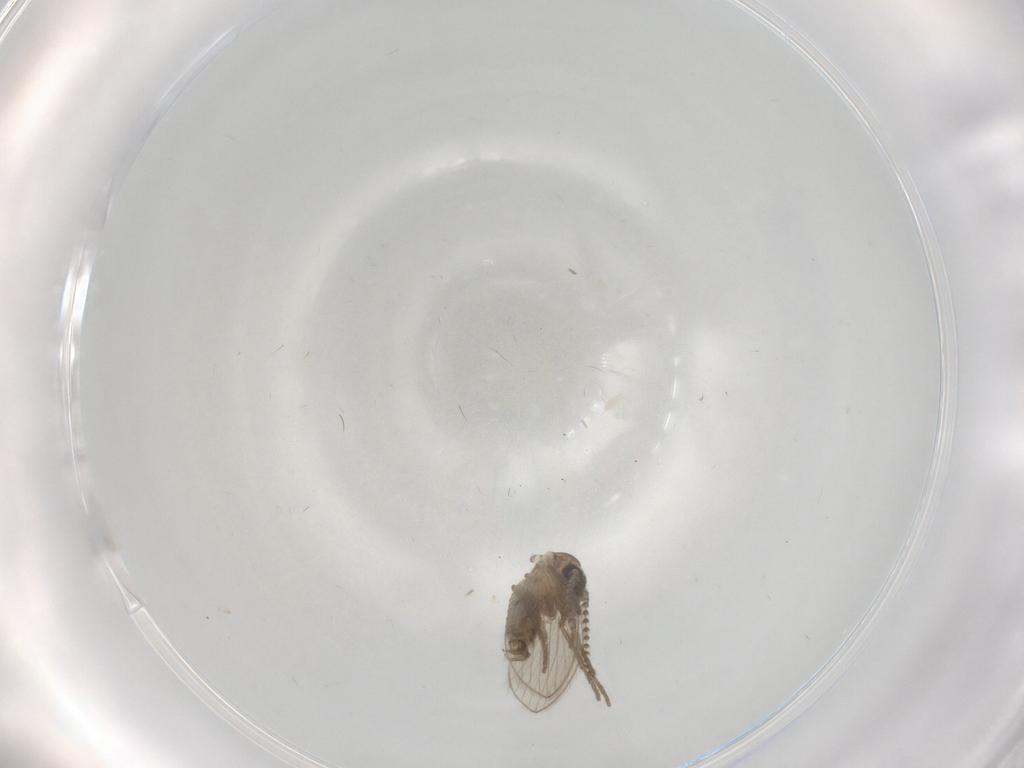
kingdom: Animalia
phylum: Arthropoda
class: Insecta
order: Diptera
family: Psychodidae
